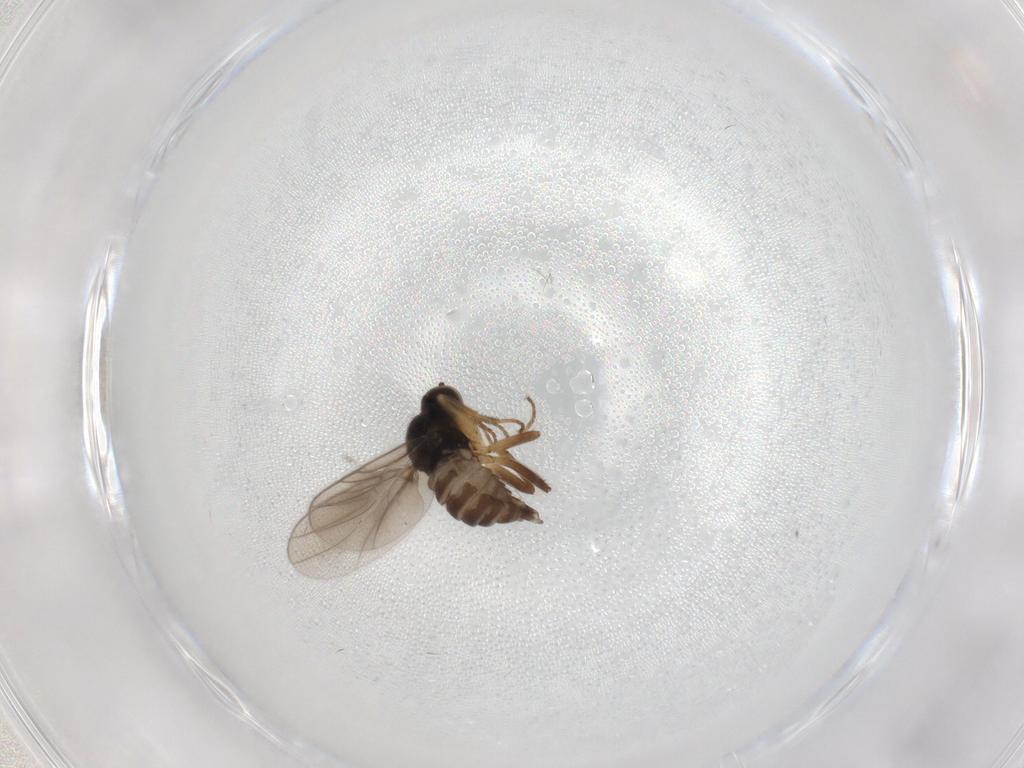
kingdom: Animalia
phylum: Arthropoda
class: Insecta
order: Diptera
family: Hybotidae
